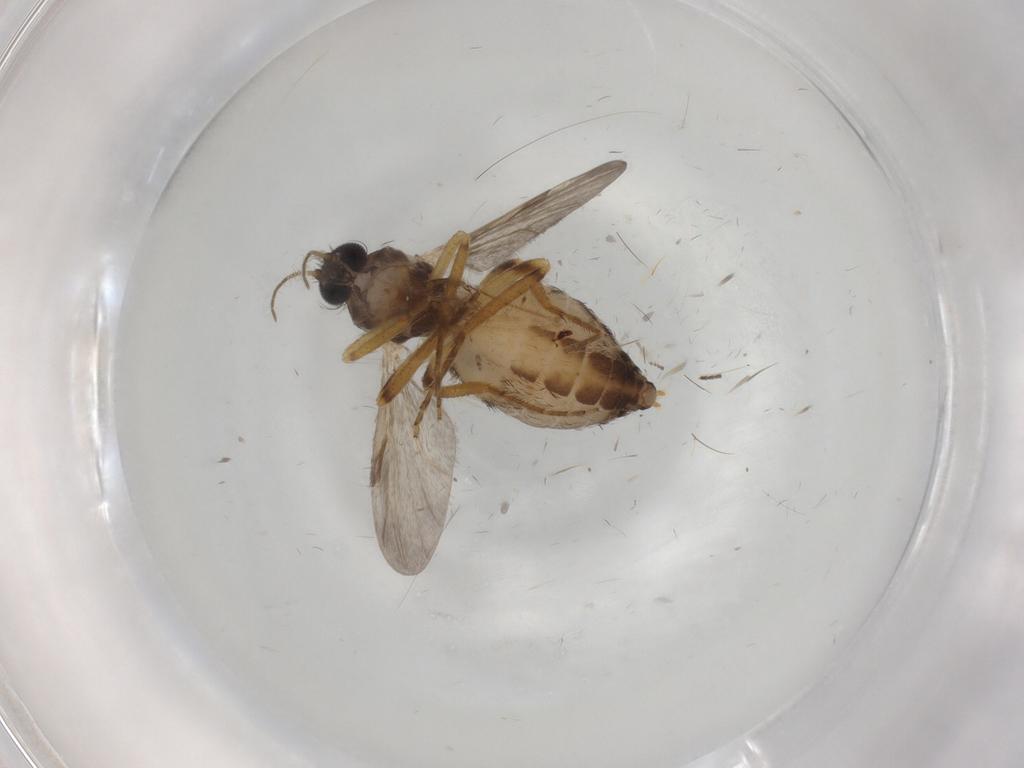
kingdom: Animalia
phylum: Arthropoda
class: Insecta
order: Diptera
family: Ceratopogonidae
